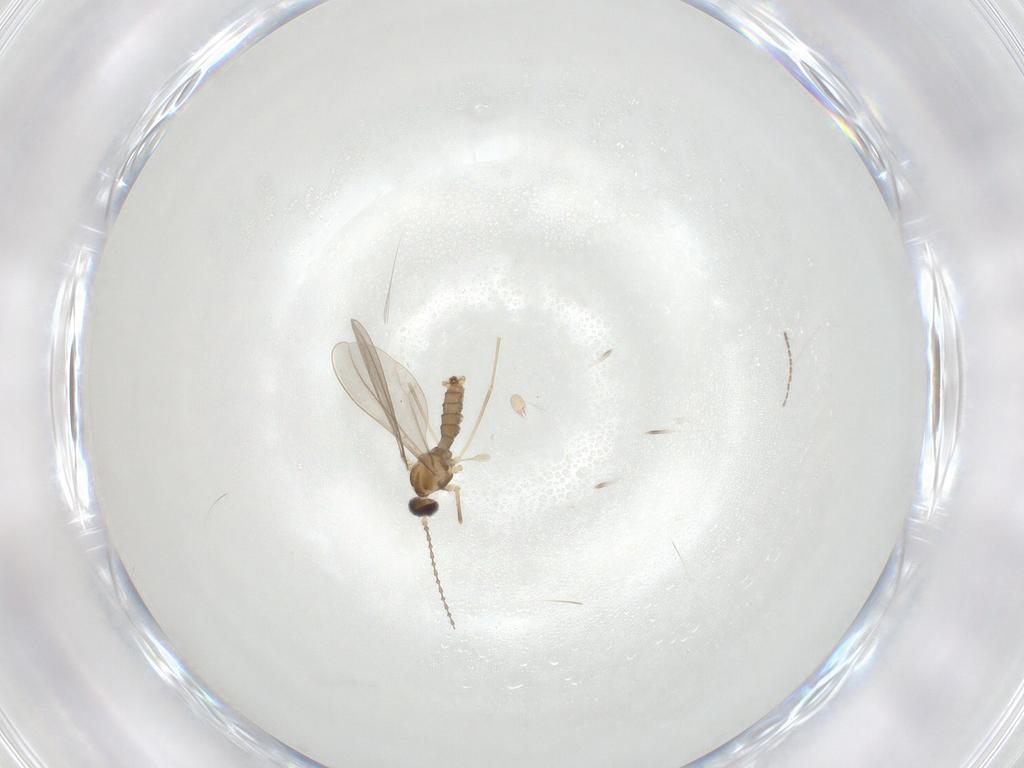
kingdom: Animalia
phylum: Arthropoda
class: Insecta
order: Diptera
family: Cecidomyiidae
